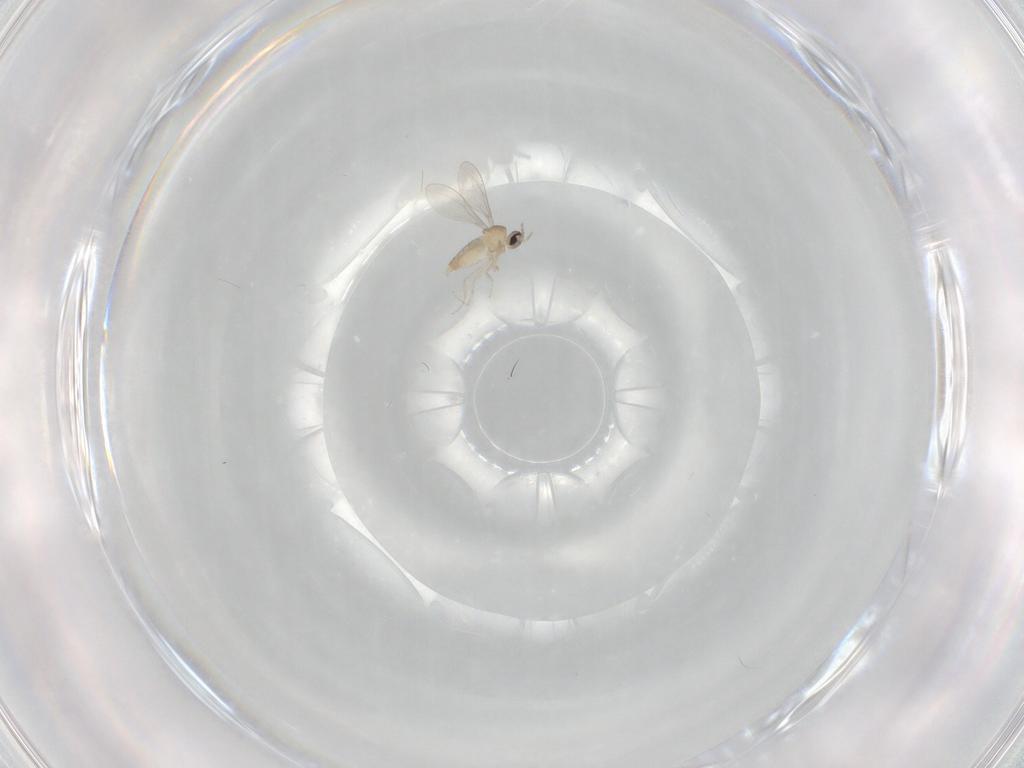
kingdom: Animalia
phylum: Arthropoda
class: Insecta
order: Diptera
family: Cecidomyiidae
